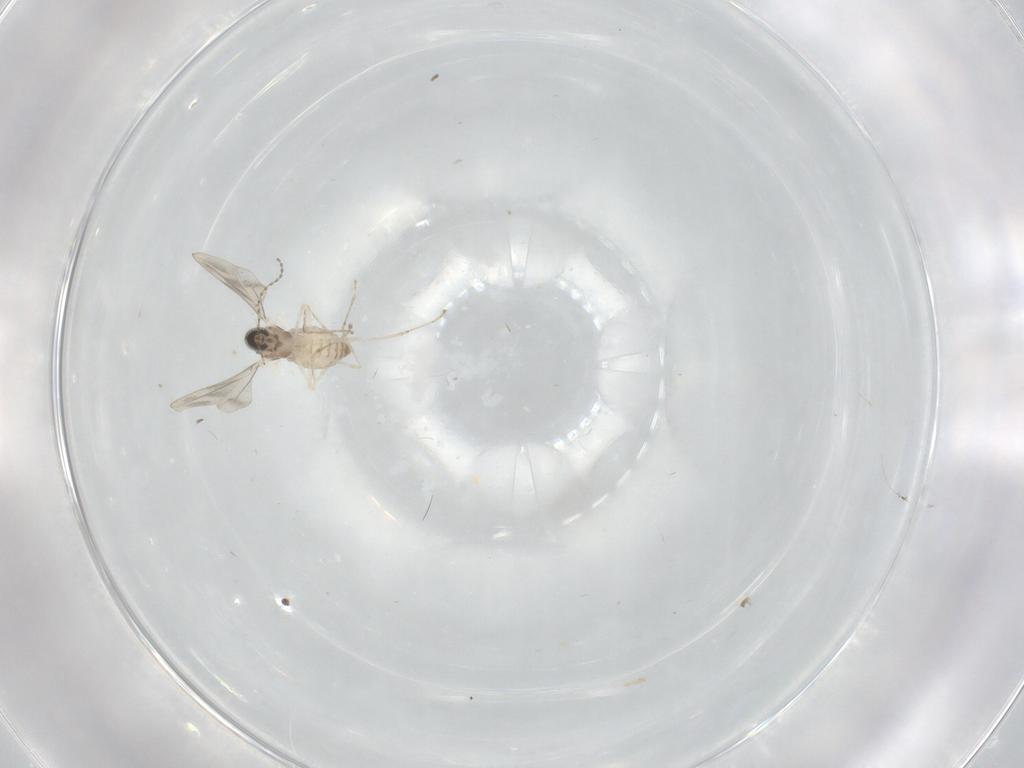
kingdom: Animalia
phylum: Arthropoda
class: Insecta
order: Diptera
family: Cecidomyiidae
